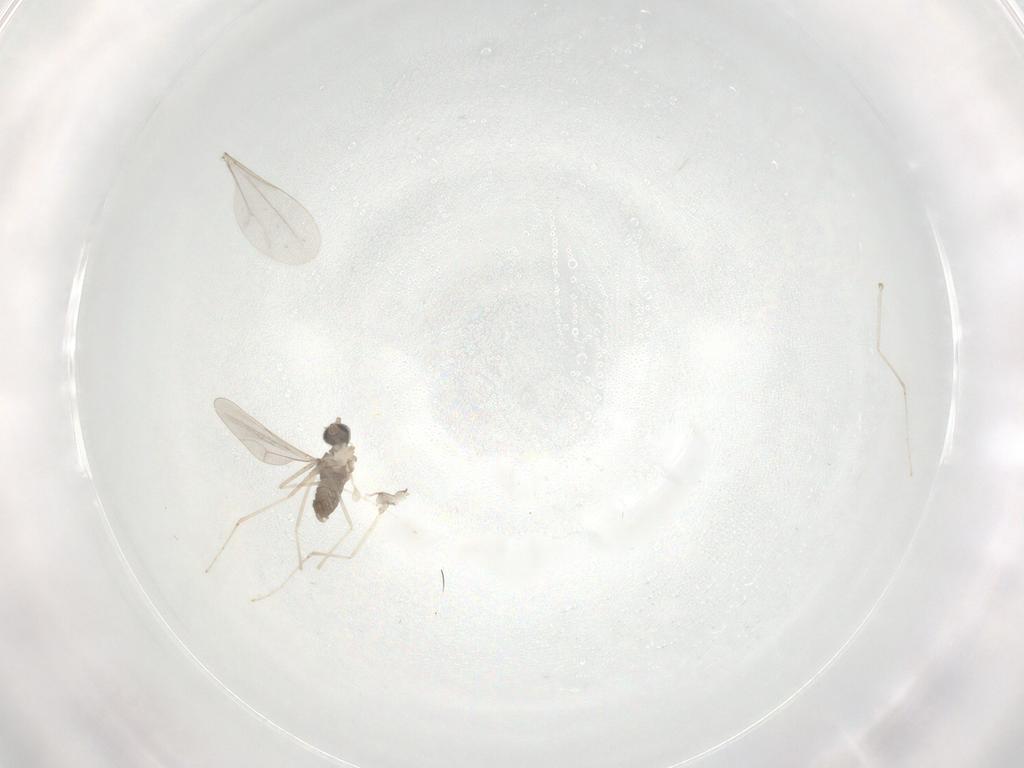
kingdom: Animalia
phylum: Arthropoda
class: Insecta
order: Diptera
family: Cecidomyiidae
